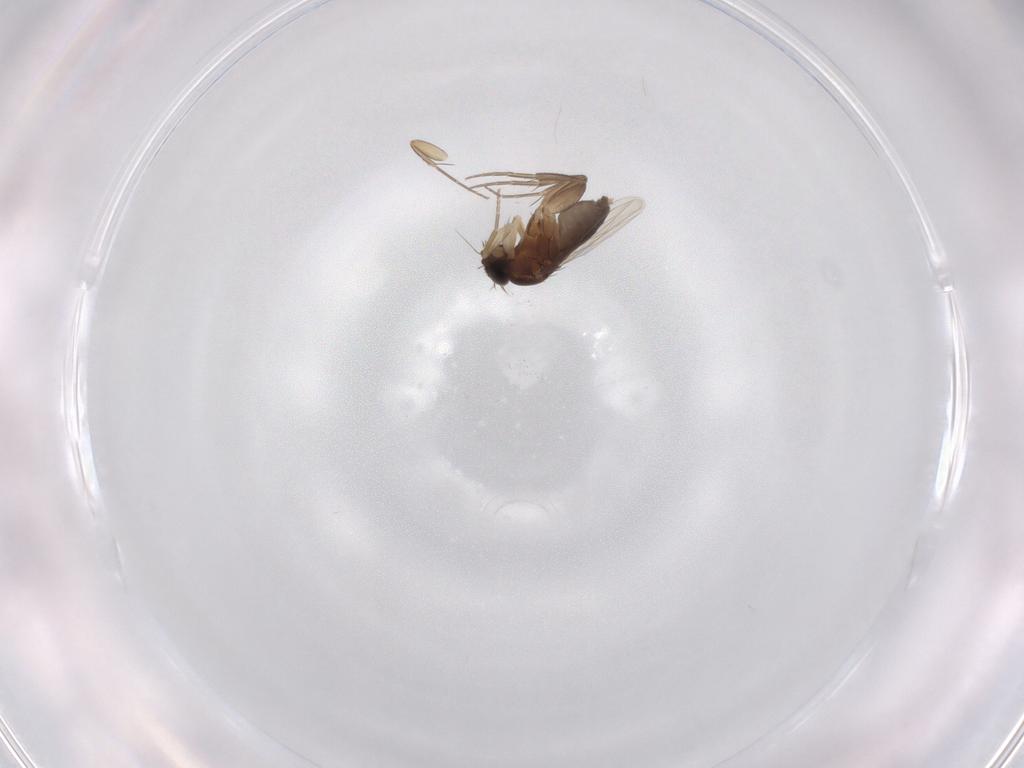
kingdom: Animalia
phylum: Arthropoda
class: Insecta
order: Diptera
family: Phoridae
